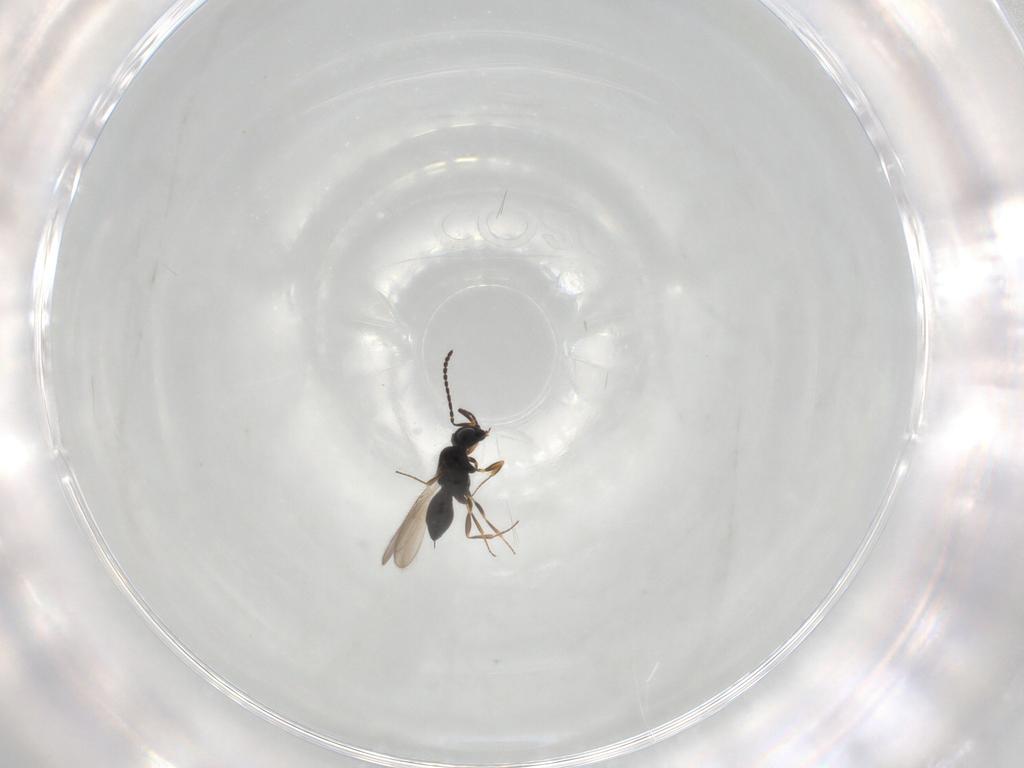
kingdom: Animalia
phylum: Arthropoda
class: Insecta
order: Hymenoptera
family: Scelionidae
